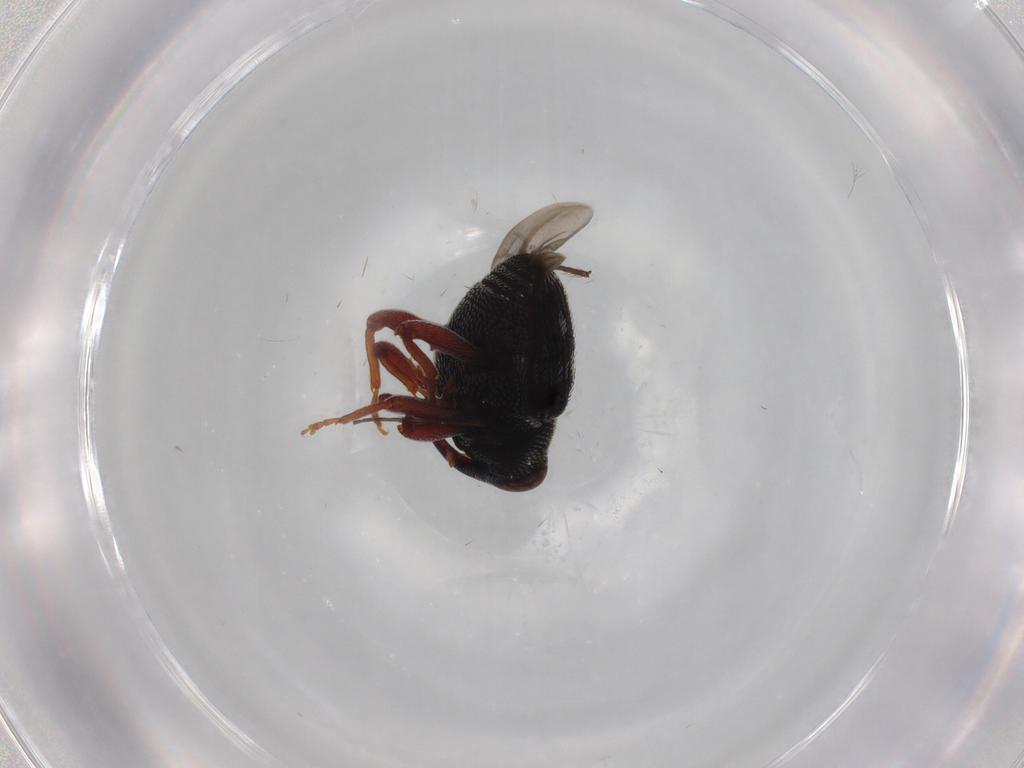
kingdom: Animalia
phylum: Arthropoda
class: Insecta
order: Coleoptera
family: Curculionidae
